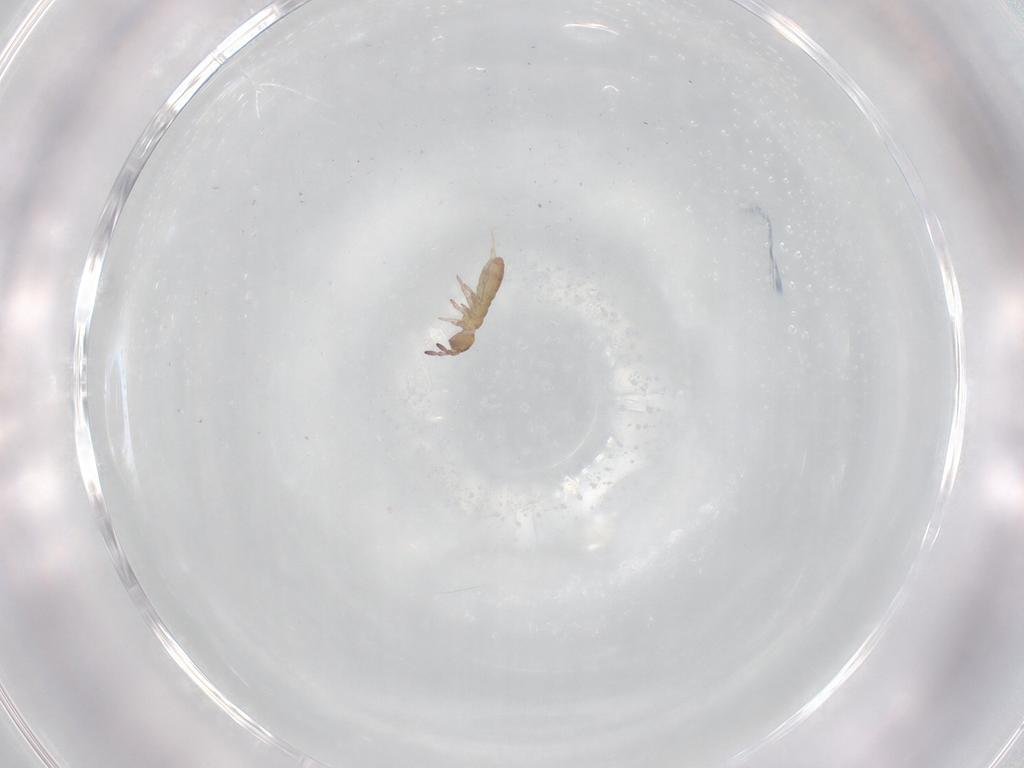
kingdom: Animalia
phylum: Arthropoda
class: Collembola
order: Entomobryomorpha
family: Isotomidae
